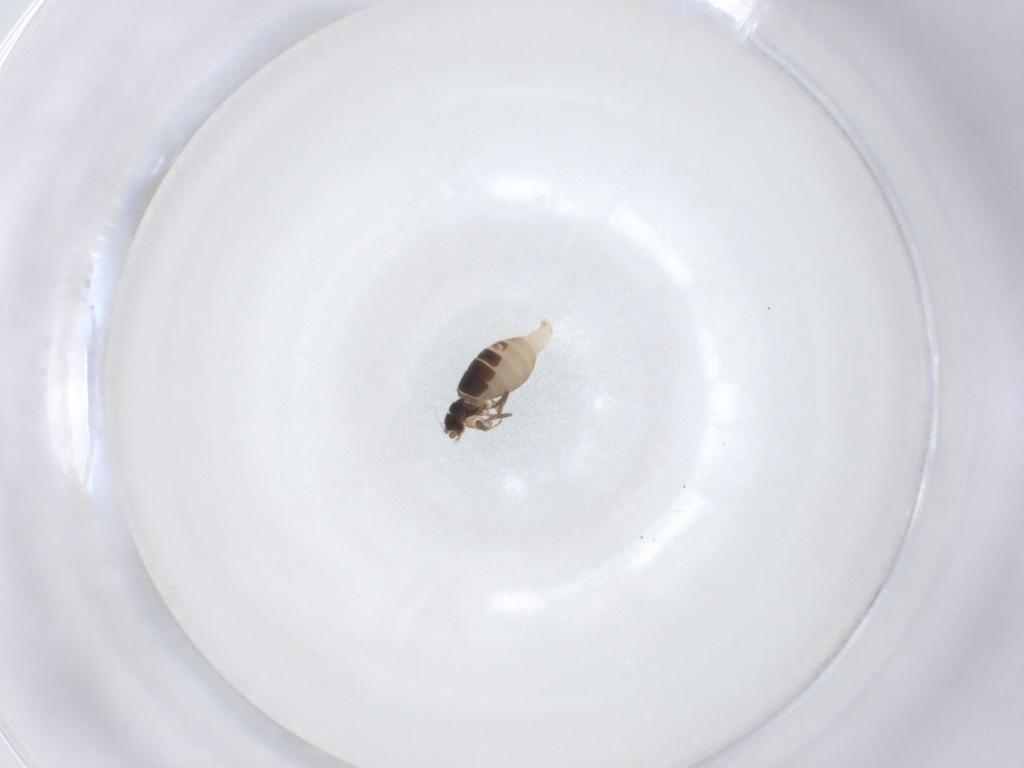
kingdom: Animalia
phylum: Arthropoda
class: Insecta
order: Diptera
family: Phoridae
